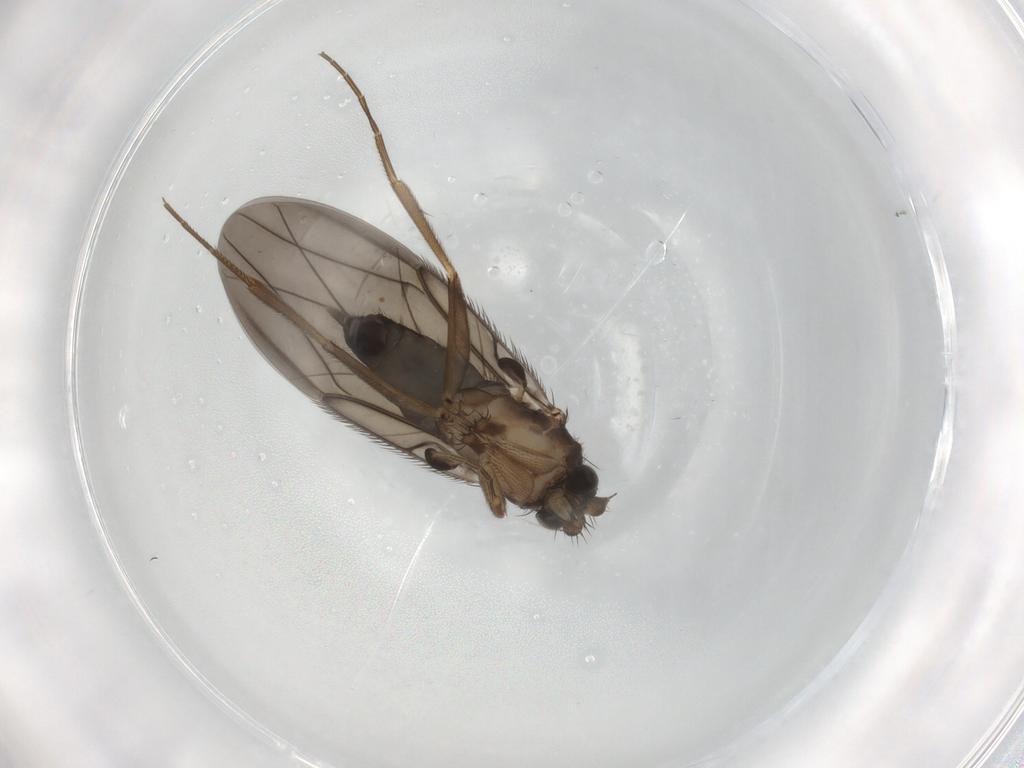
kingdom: Animalia
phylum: Arthropoda
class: Insecta
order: Diptera
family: Phoridae
